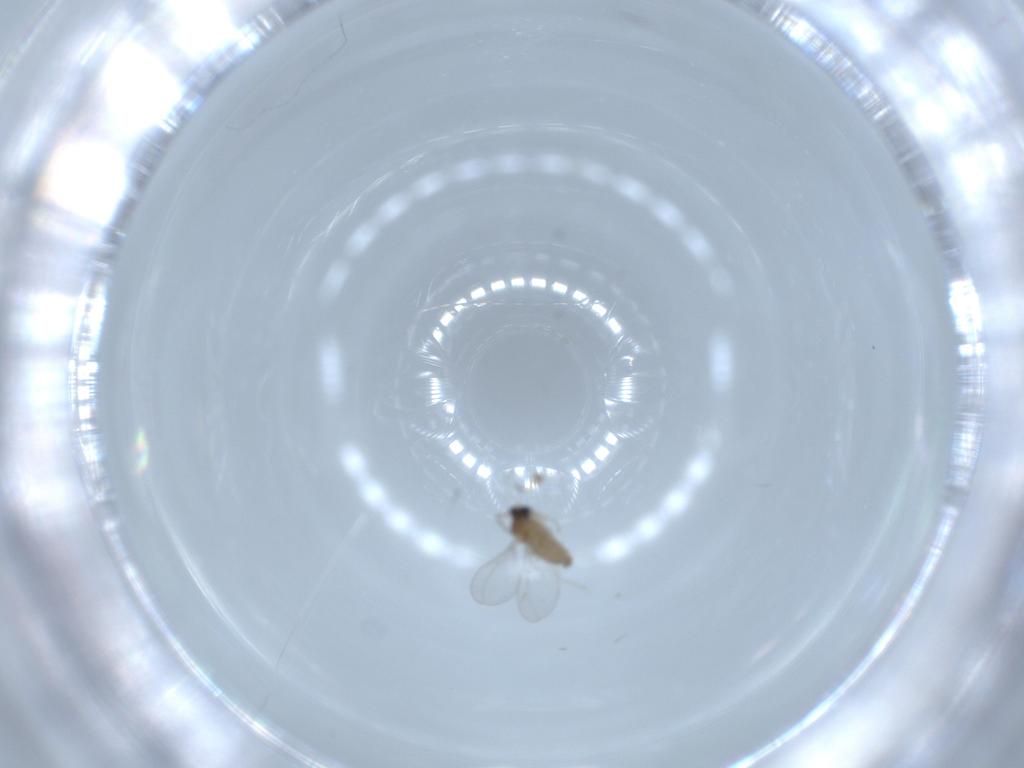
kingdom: Animalia
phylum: Arthropoda
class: Insecta
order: Diptera
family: Cecidomyiidae
